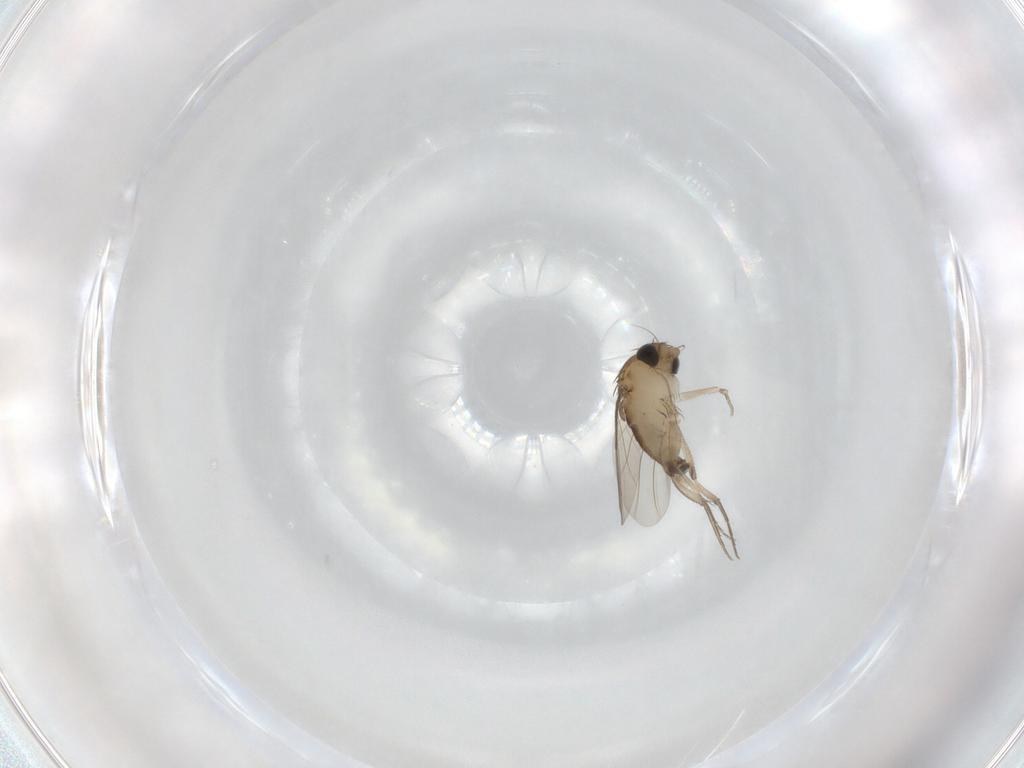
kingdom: Animalia
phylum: Arthropoda
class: Insecta
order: Diptera
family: Phoridae
